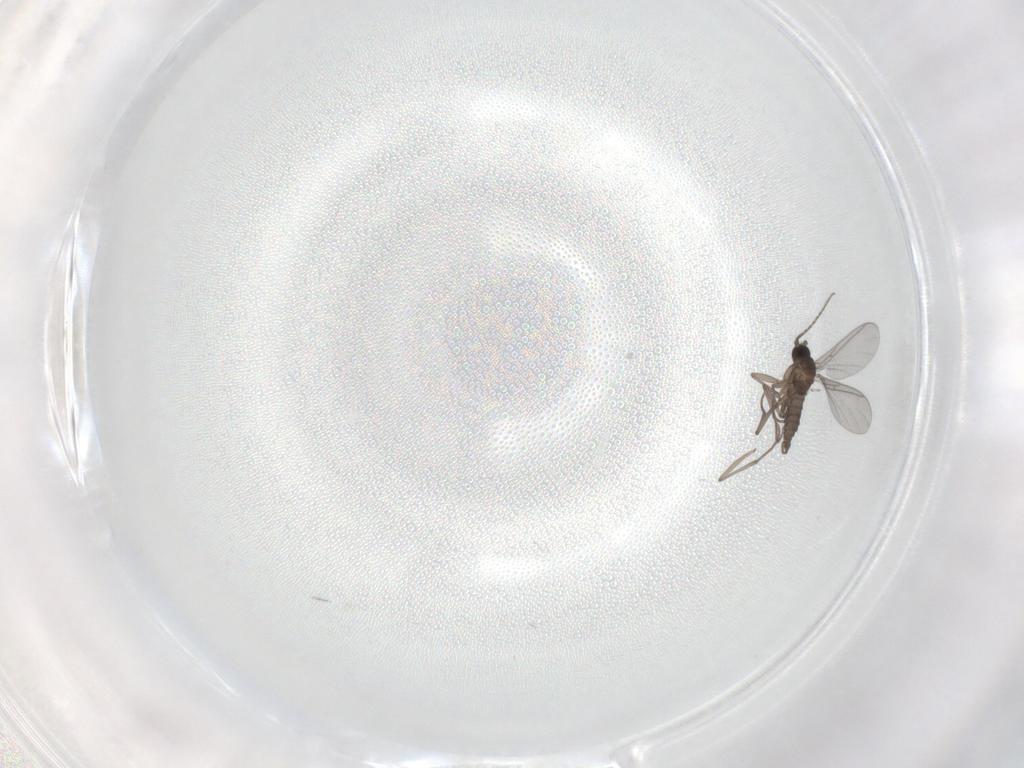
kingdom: Animalia
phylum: Arthropoda
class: Insecta
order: Diptera
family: Sciaridae
